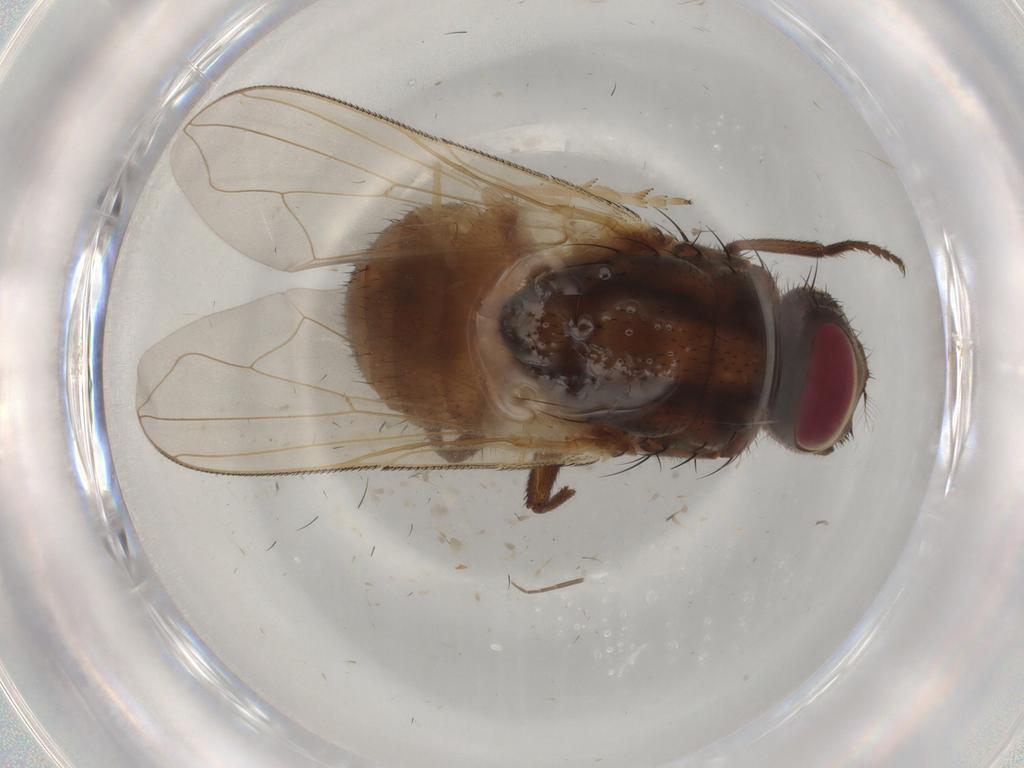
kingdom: Animalia
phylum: Arthropoda
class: Insecta
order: Diptera
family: Muscidae
